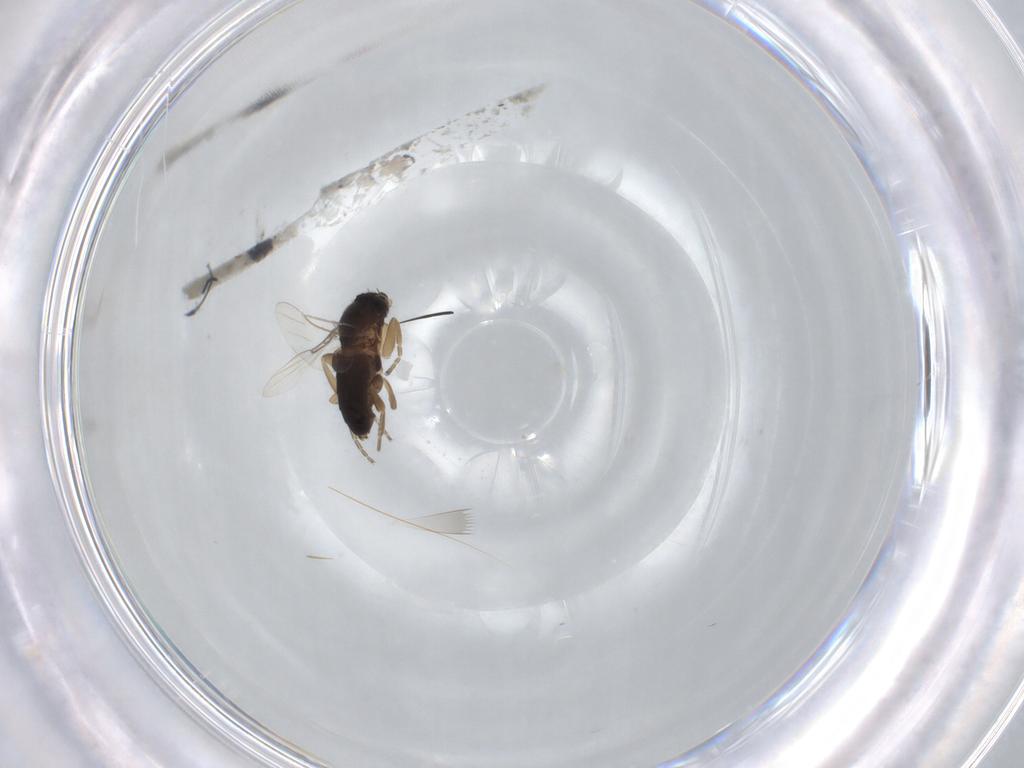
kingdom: Animalia
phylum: Arthropoda
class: Insecta
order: Diptera
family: Phoridae
